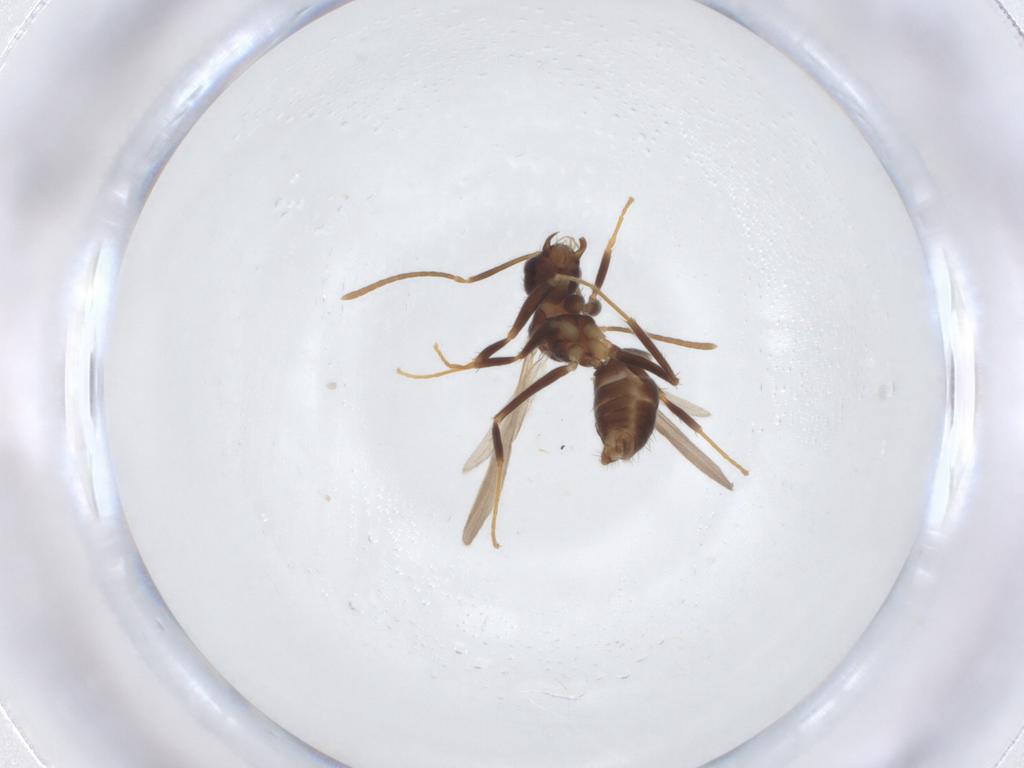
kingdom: Animalia
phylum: Arthropoda
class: Insecta
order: Hymenoptera
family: Formicidae
